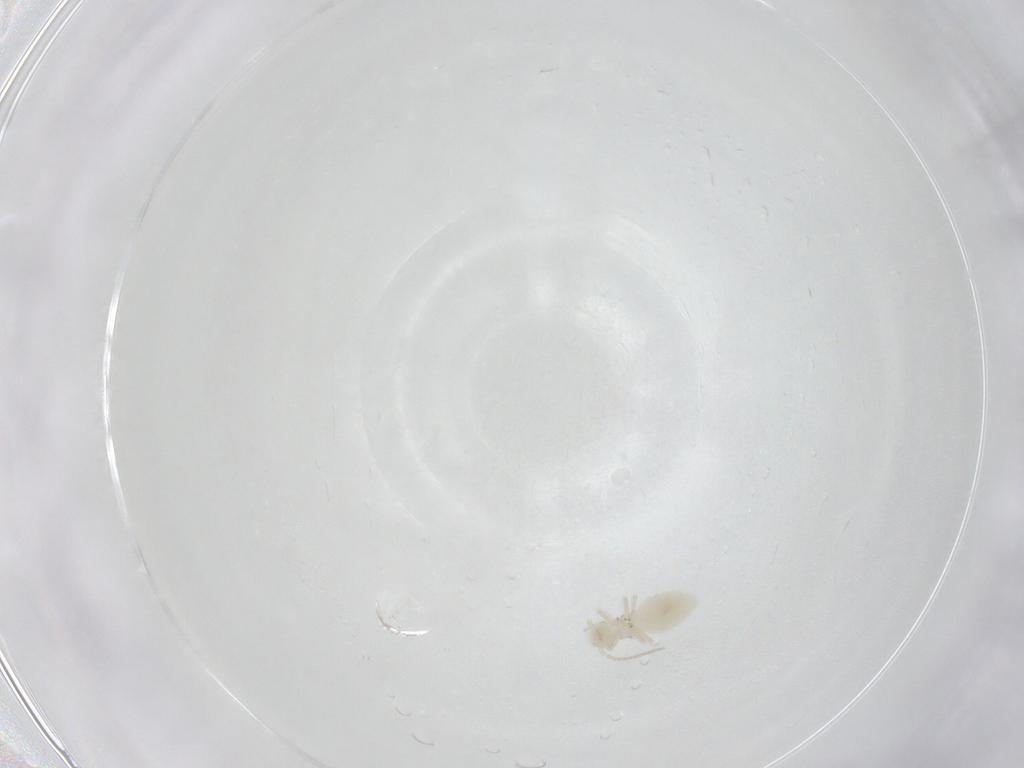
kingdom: Animalia
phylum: Arthropoda
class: Insecta
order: Psocodea
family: Caeciliusidae
